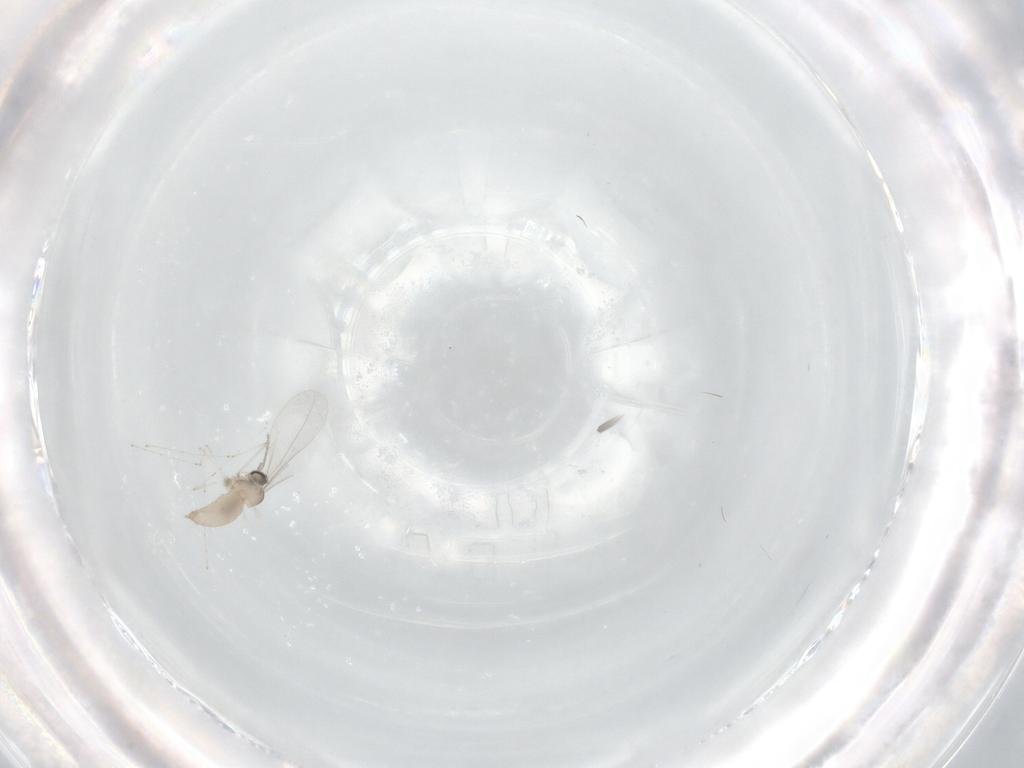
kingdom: Animalia
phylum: Arthropoda
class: Insecta
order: Diptera
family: Cecidomyiidae
